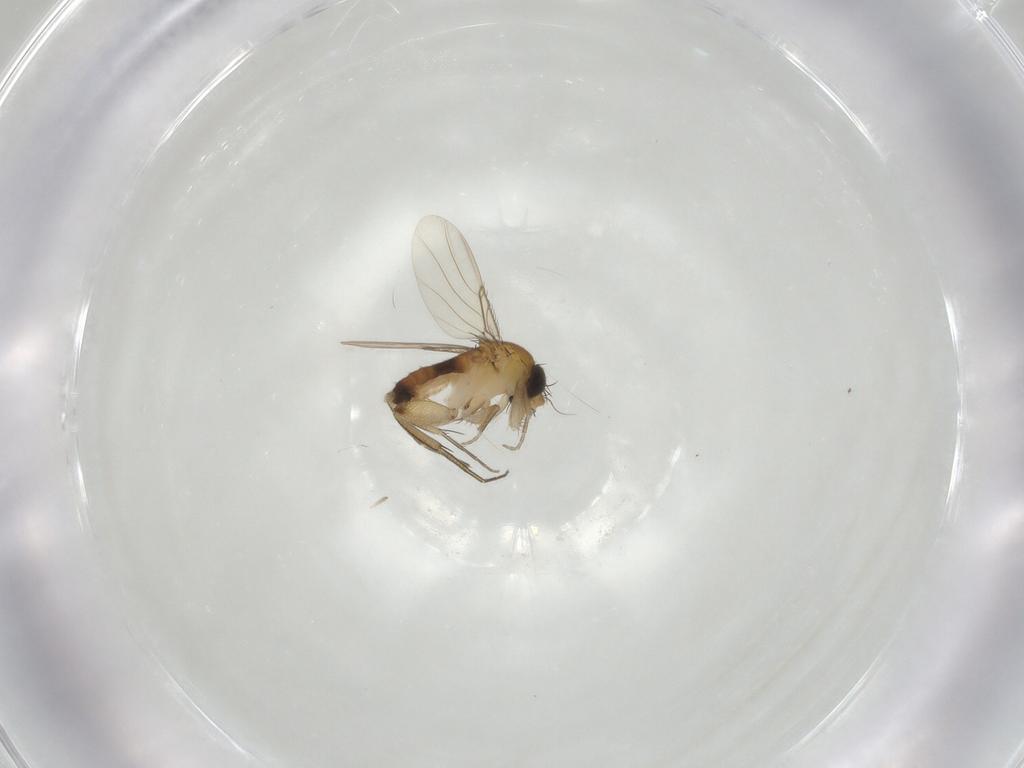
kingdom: Animalia
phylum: Arthropoda
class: Insecta
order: Diptera
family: Phoridae
